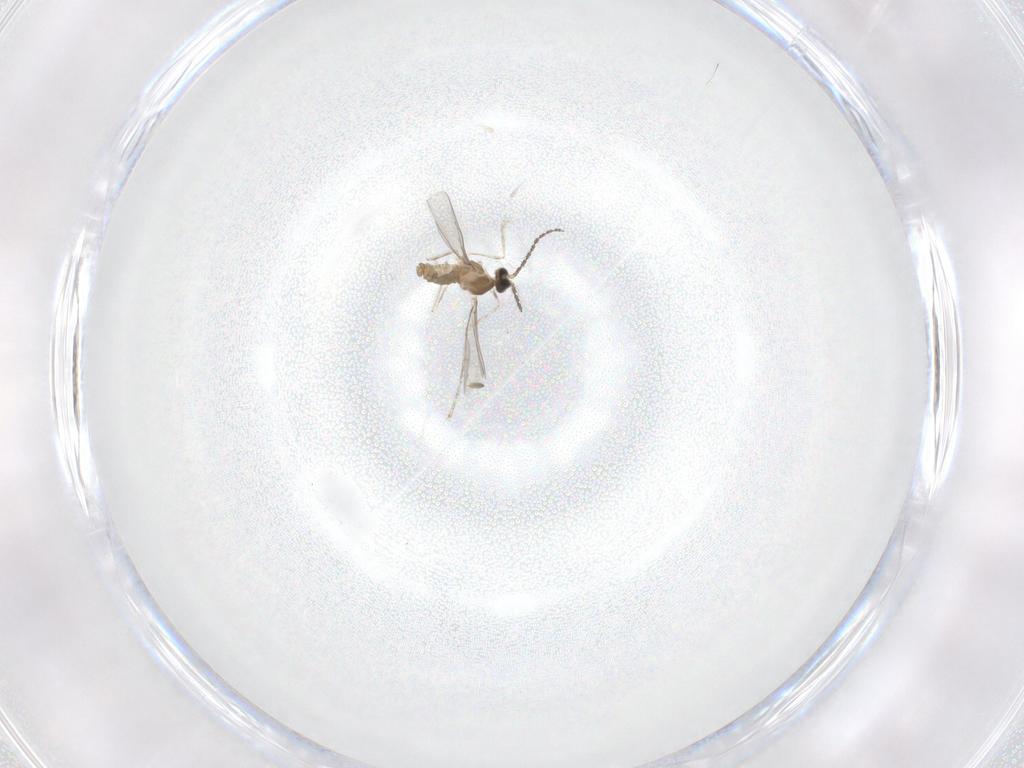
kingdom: Animalia
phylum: Arthropoda
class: Insecta
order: Diptera
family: Cecidomyiidae
